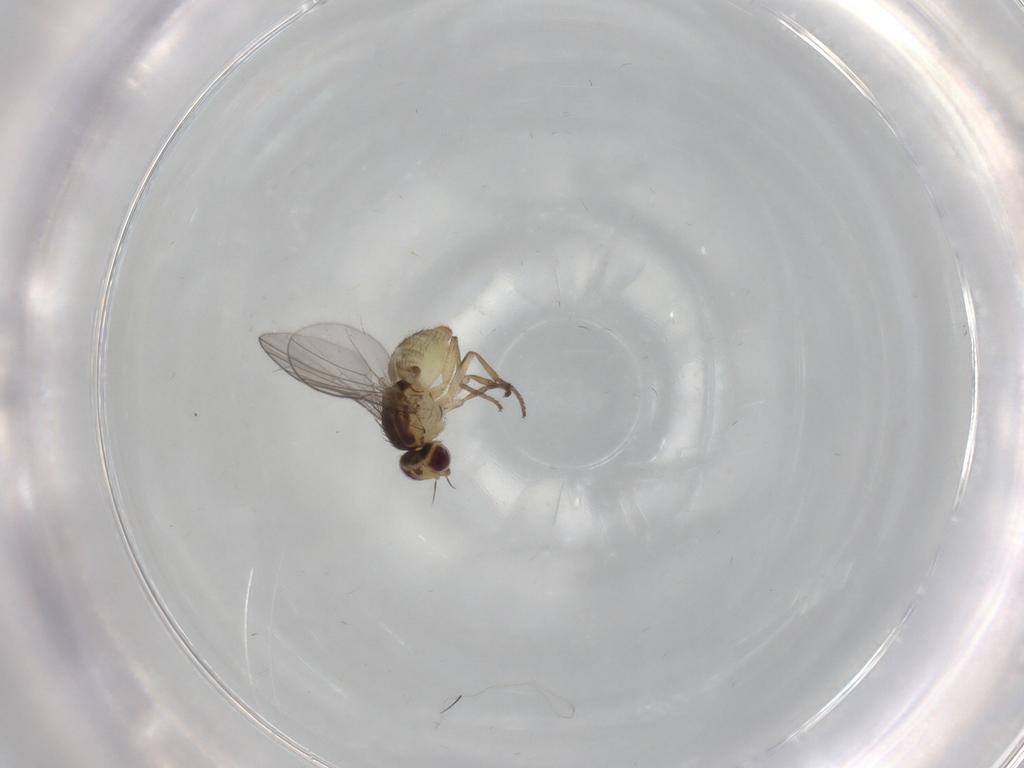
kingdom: Animalia
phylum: Arthropoda
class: Insecta
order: Diptera
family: Agromyzidae
